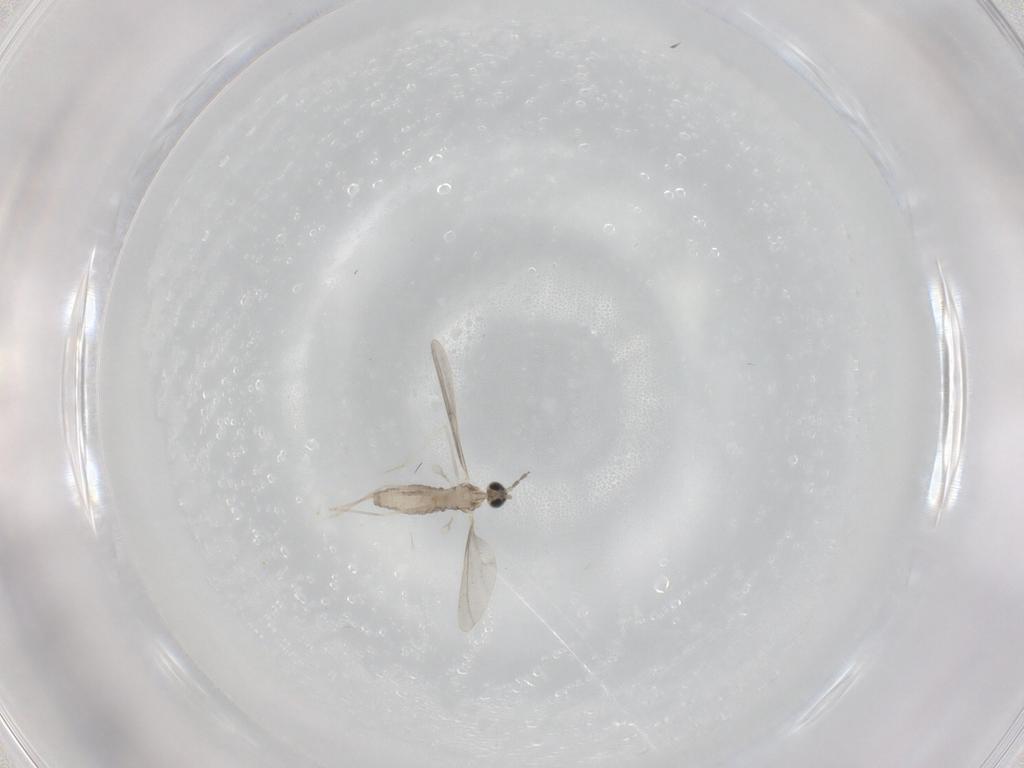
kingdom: Animalia
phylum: Arthropoda
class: Insecta
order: Diptera
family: Cecidomyiidae
